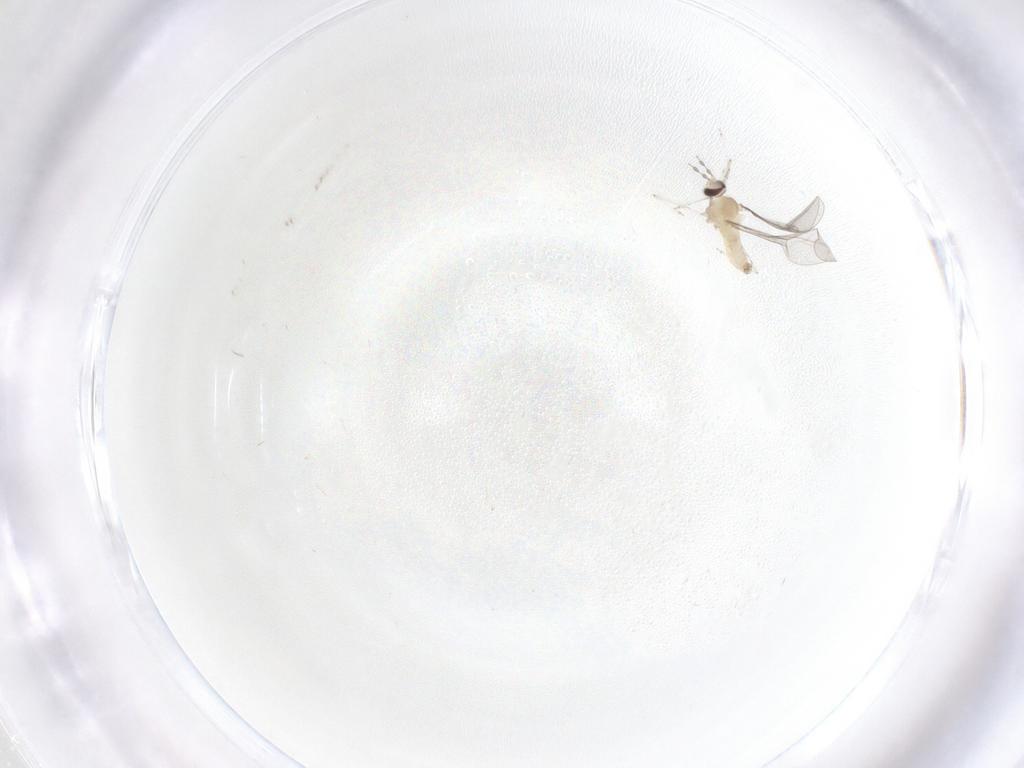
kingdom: Animalia
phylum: Arthropoda
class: Insecta
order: Diptera
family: Cecidomyiidae
